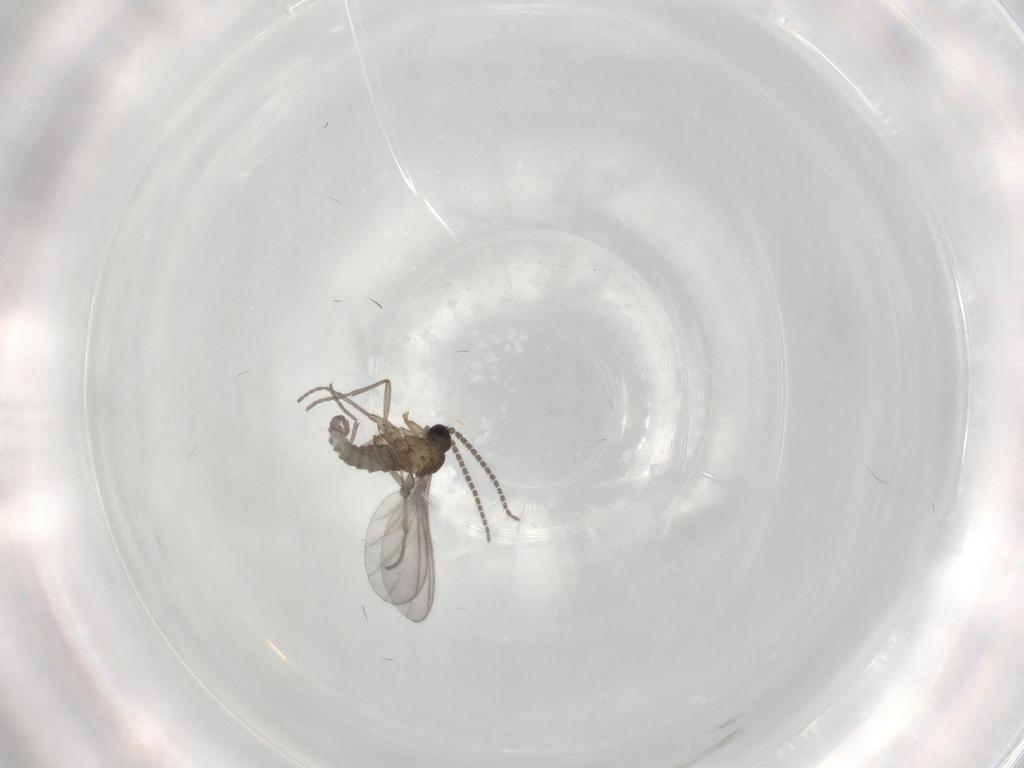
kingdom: Animalia
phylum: Arthropoda
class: Insecta
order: Diptera
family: Sciaridae
